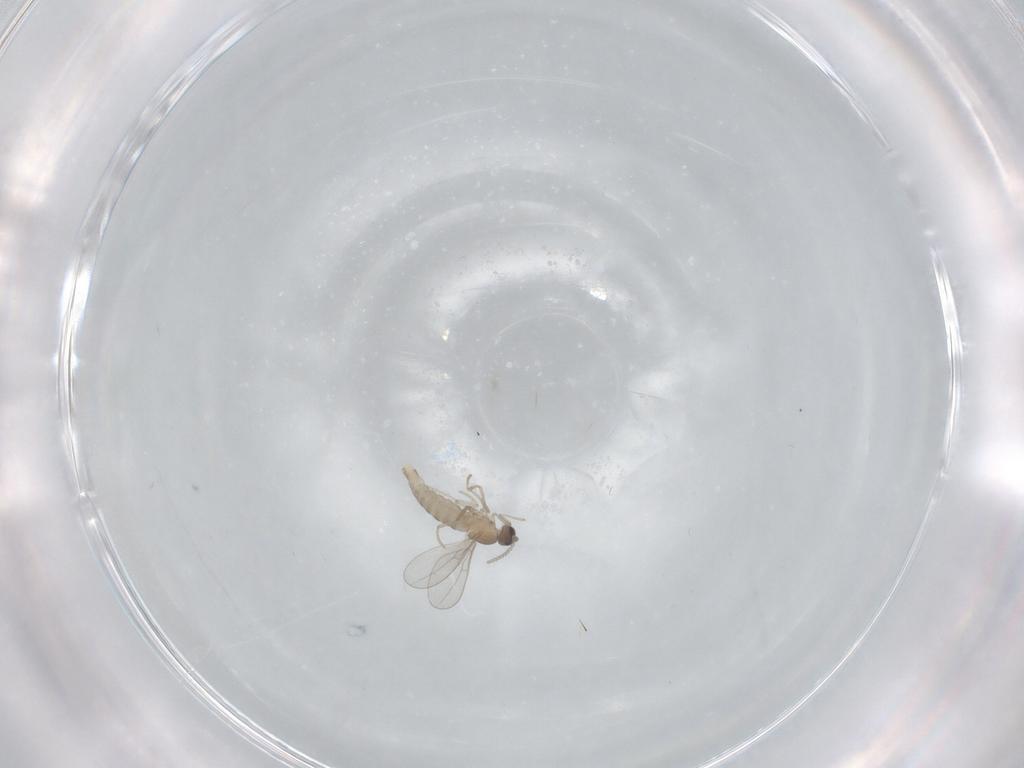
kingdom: Animalia
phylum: Arthropoda
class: Insecta
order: Diptera
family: Cecidomyiidae
